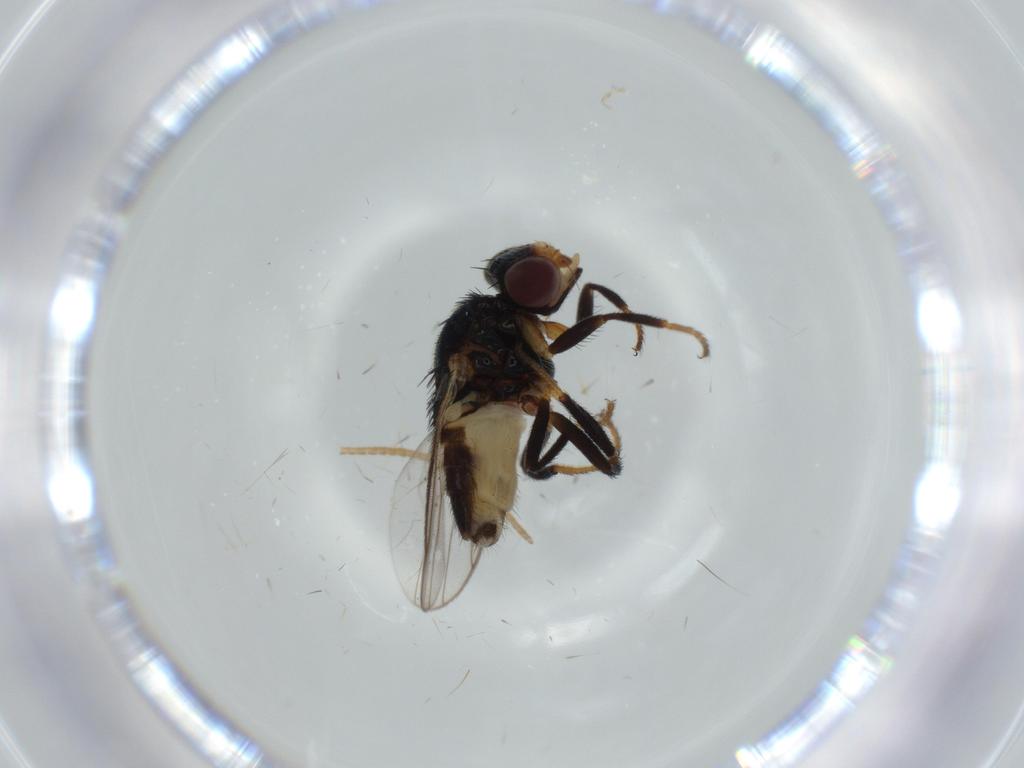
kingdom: Animalia
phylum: Arthropoda
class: Insecta
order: Diptera
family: Chloropidae
